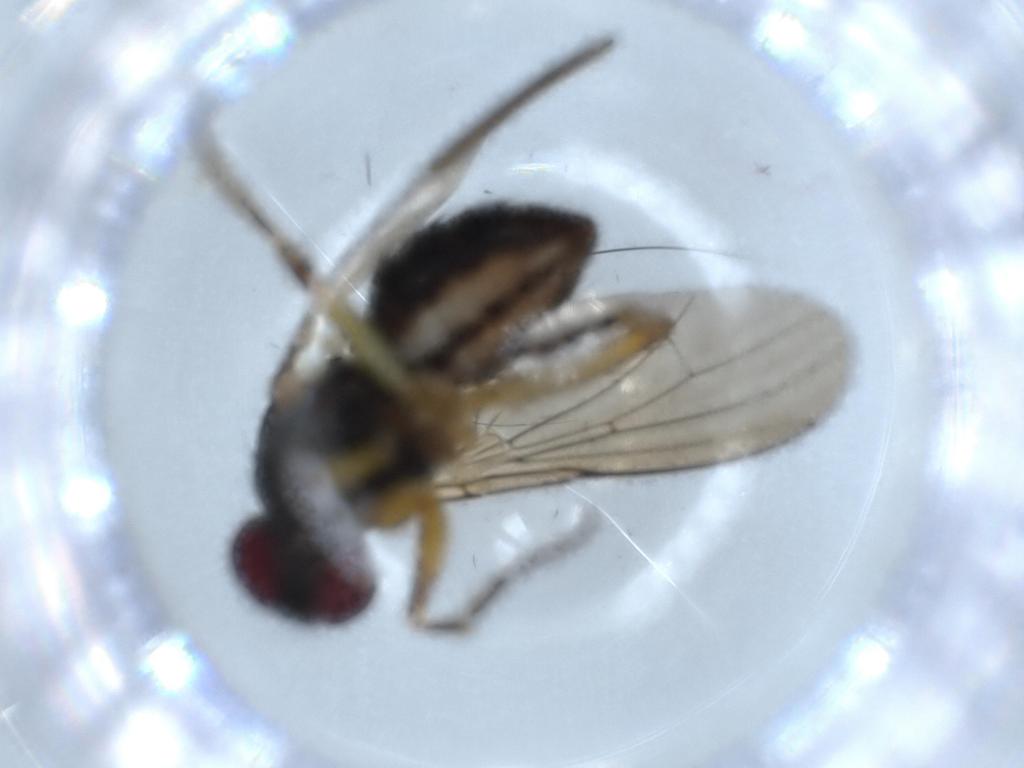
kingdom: Animalia
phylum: Arthropoda
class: Insecta
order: Diptera
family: Muscidae
